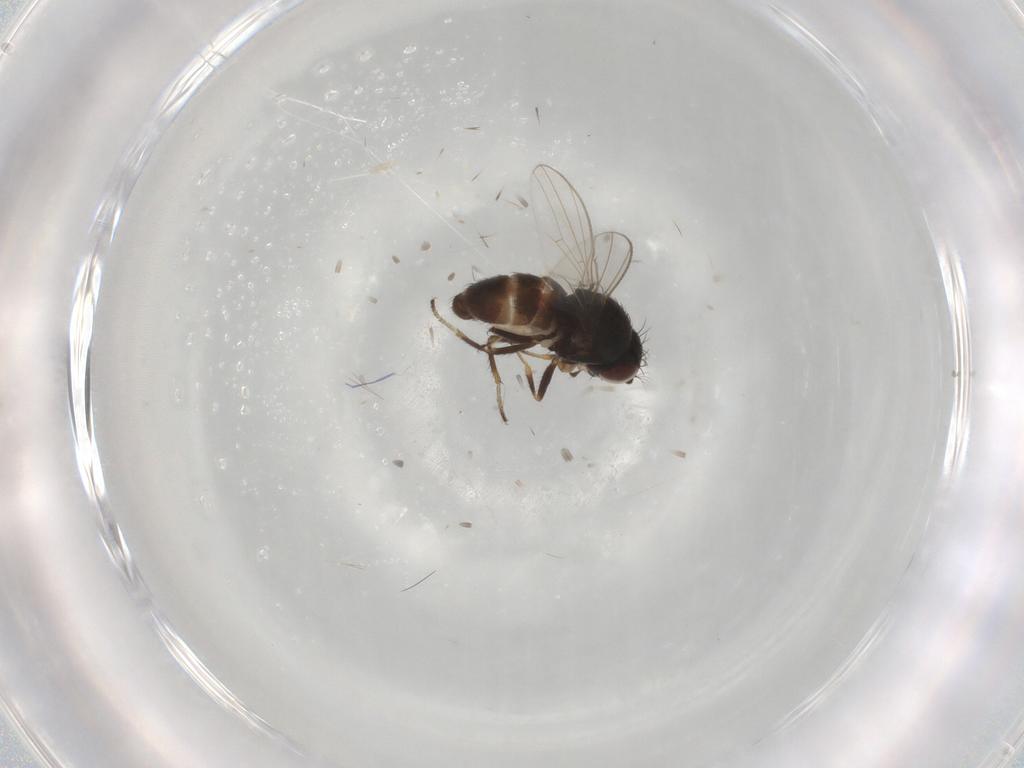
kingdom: Animalia
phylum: Arthropoda
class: Insecta
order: Diptera
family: Ephydridae
